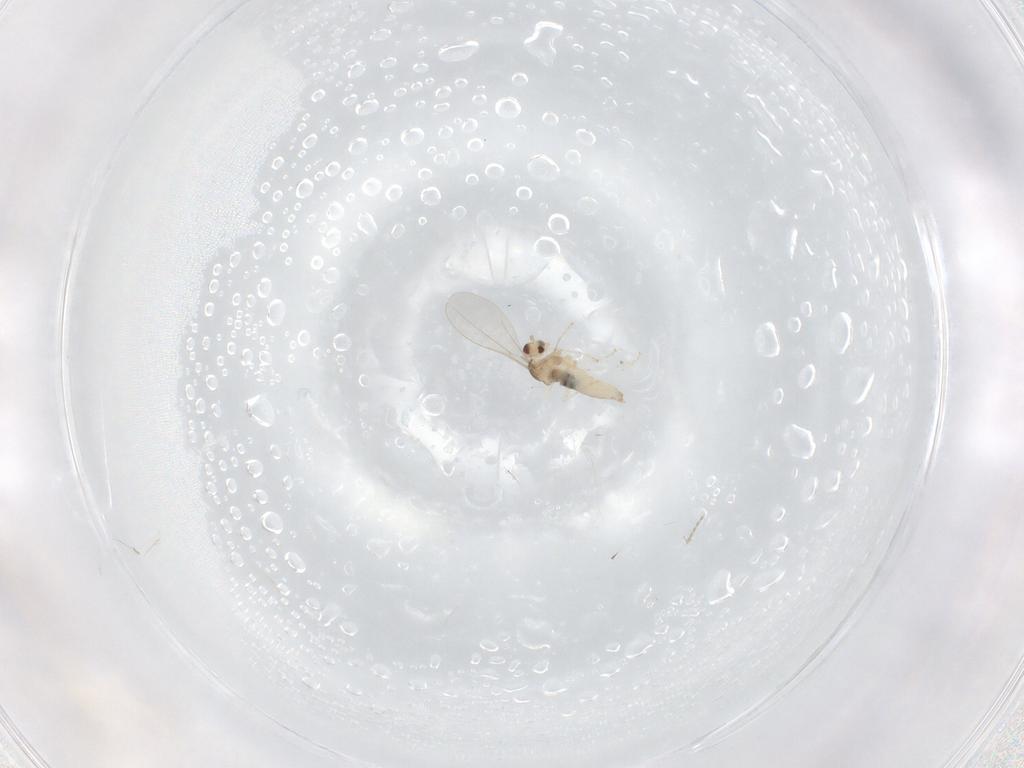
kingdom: Animalia
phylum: Arthropoda
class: Insecta
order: Diptera
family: Cecidomyiidae
